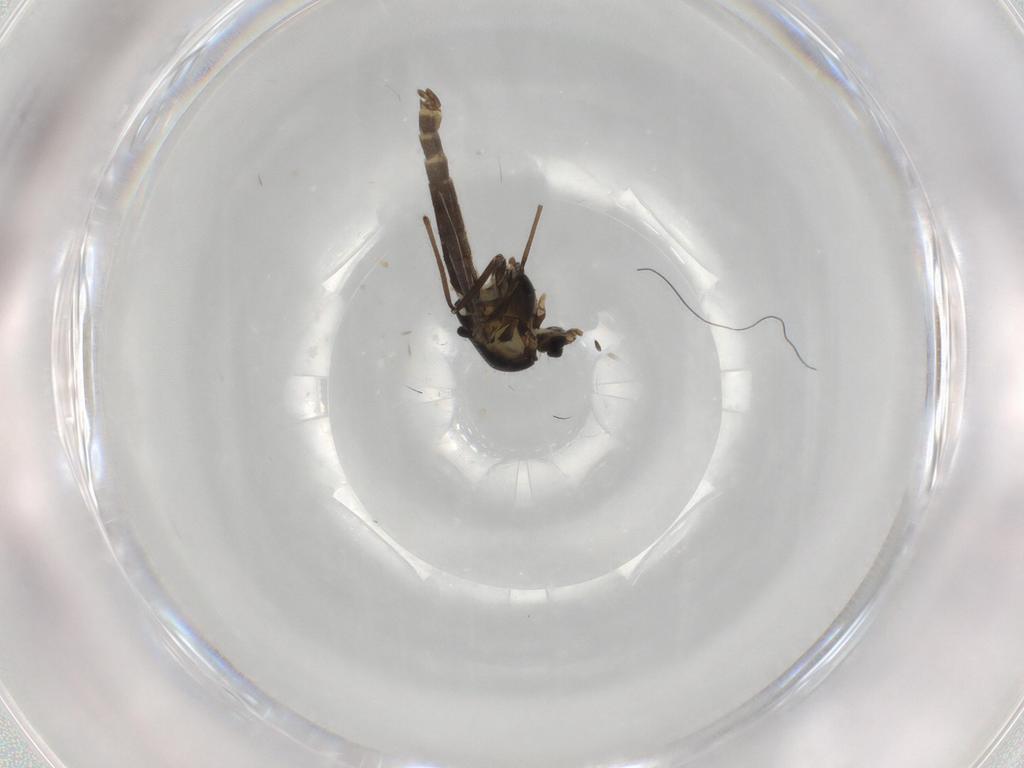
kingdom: Animalia
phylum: Arthropoda
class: Insecta
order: Diptera
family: Chironomidae
